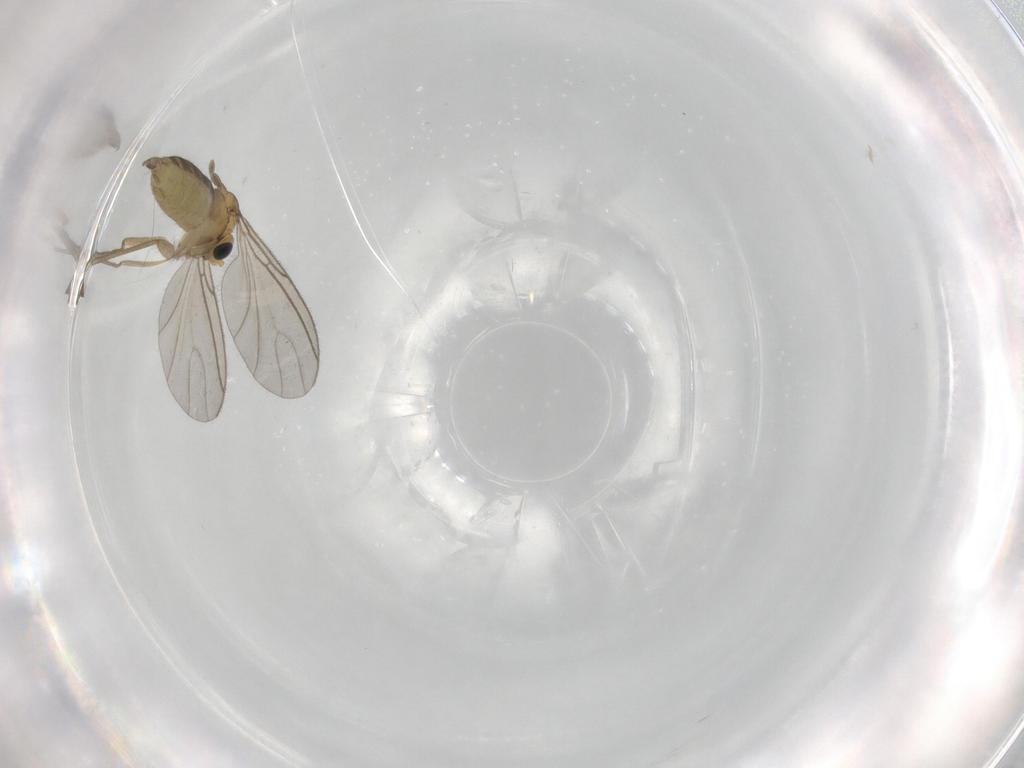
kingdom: Animalia
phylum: Arthropoda
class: Insecta
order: Diptera
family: Sciaridae
